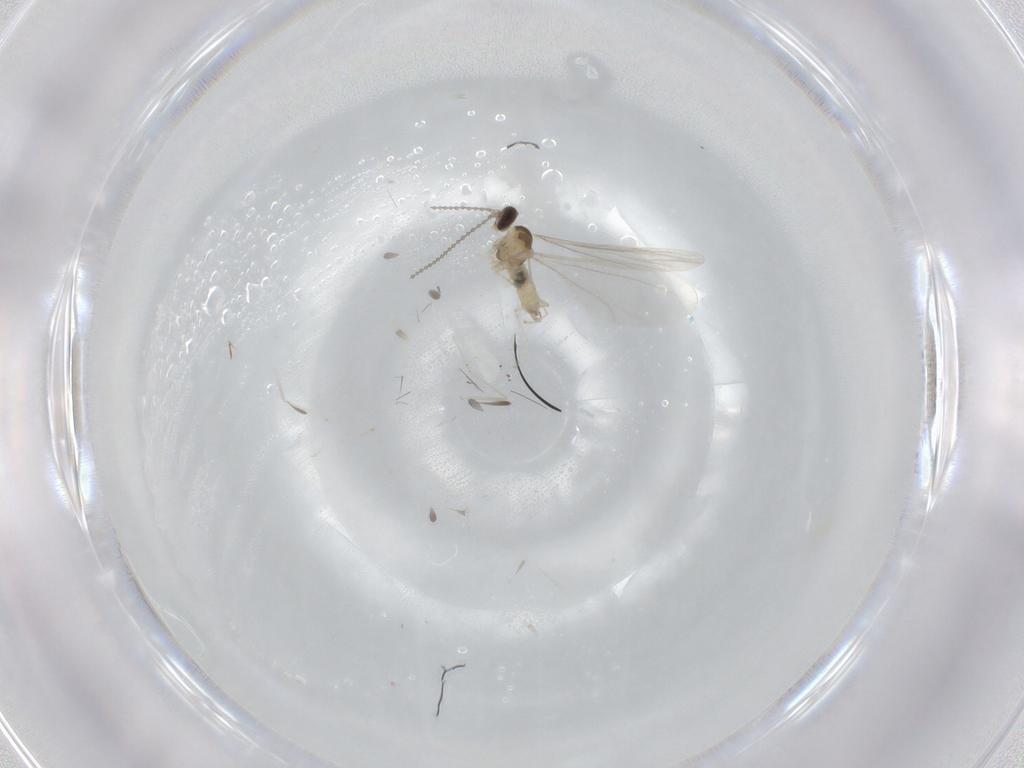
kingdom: Animalia
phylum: Arthropoda
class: Insecta
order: Diptera
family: Cecidomyiidae
